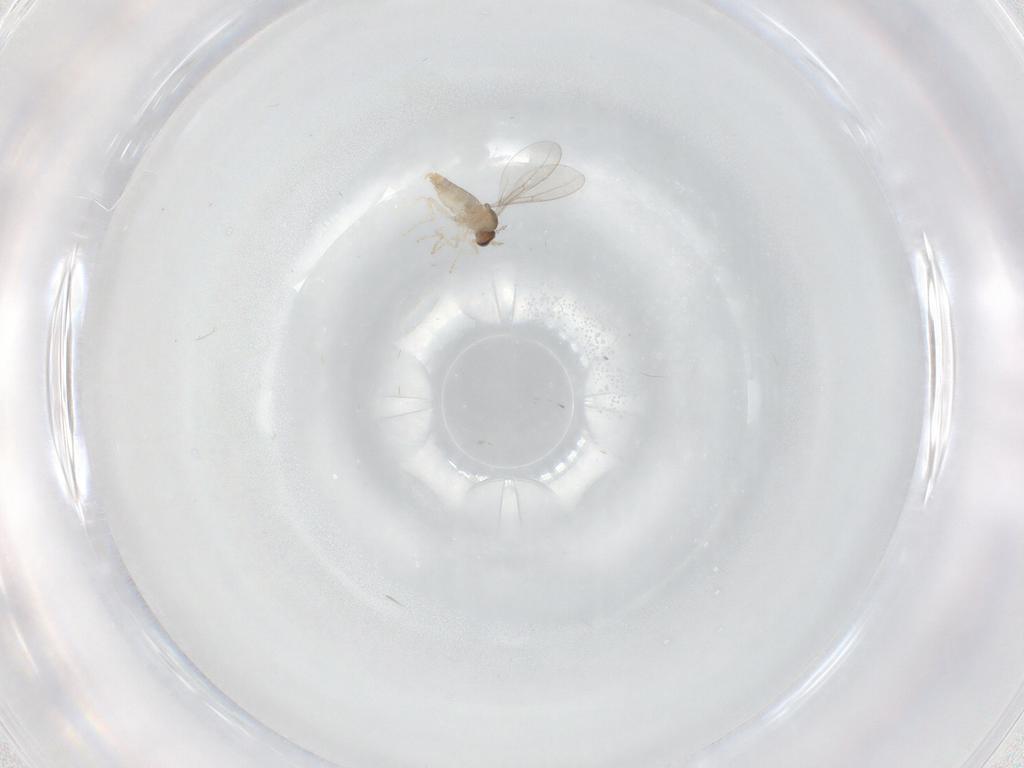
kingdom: Animalia
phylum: Arthropoda
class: Insecta
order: Diptera
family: Cecidomyiidae
